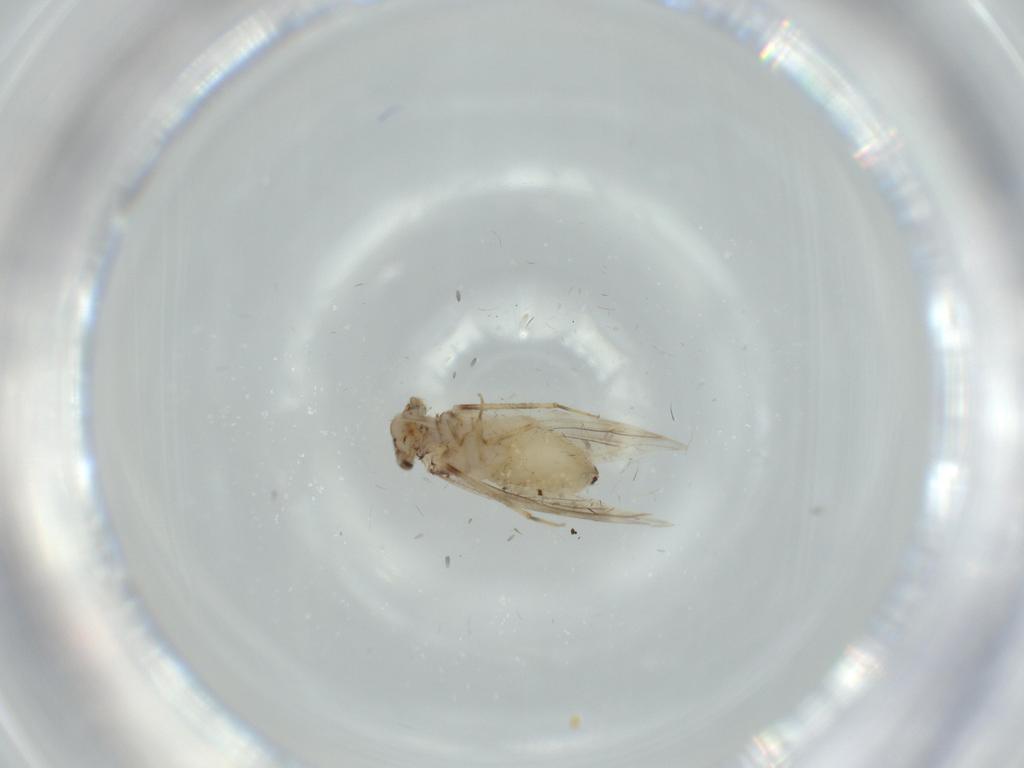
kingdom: Animalia
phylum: Arthropoda
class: Insecta
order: Psocodea
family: Lepidopsocidae
